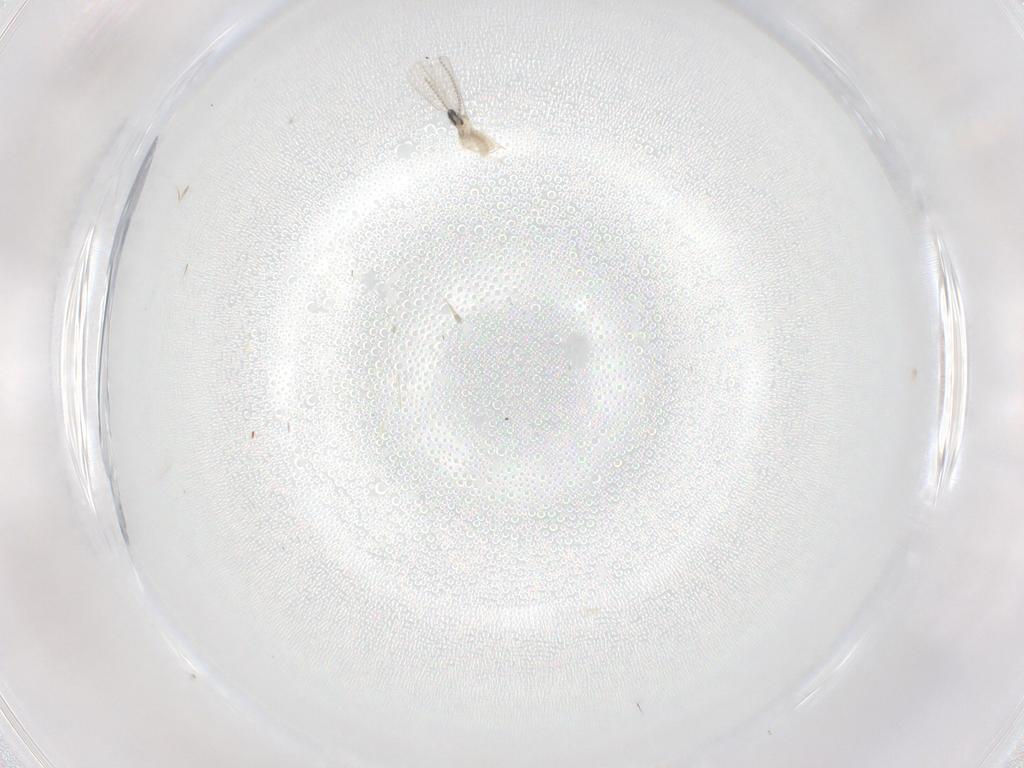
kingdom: Animalia
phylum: Arthropoda
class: Insecta
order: Diptera
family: Cecidomyiidae
